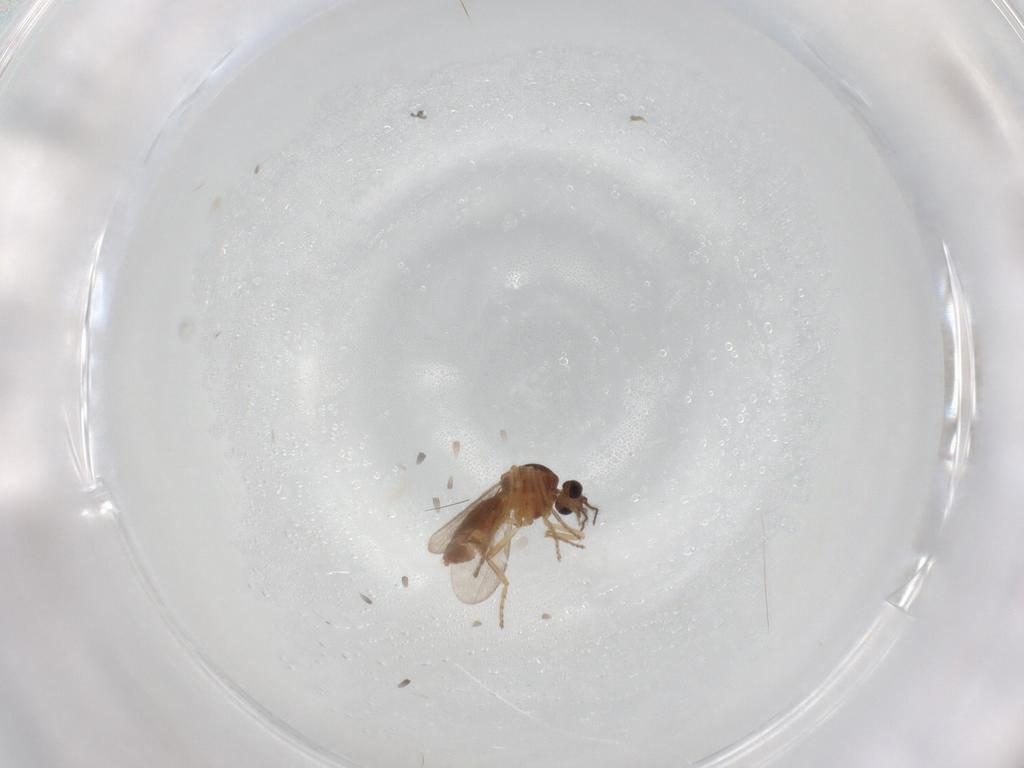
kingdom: Animalia
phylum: Arthropoda
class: Insecta
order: Diptera
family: Ceratopogonidae
